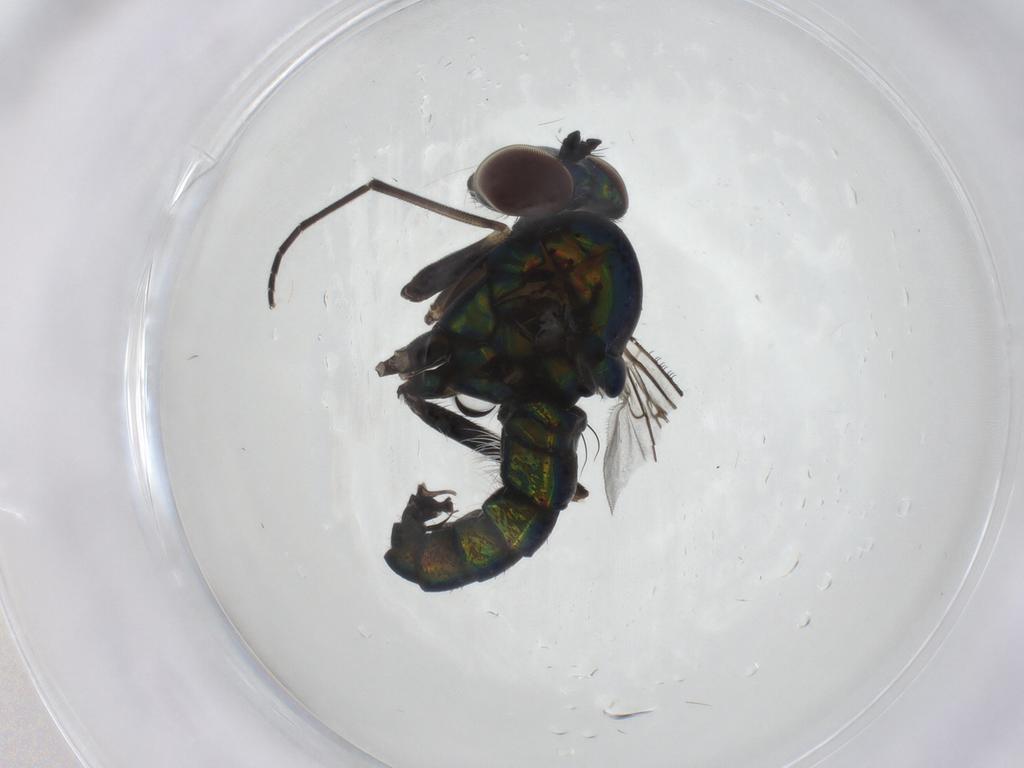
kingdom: Animalia
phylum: Arthropoda
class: Insecta
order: Diptera
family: Dolichopodidae
